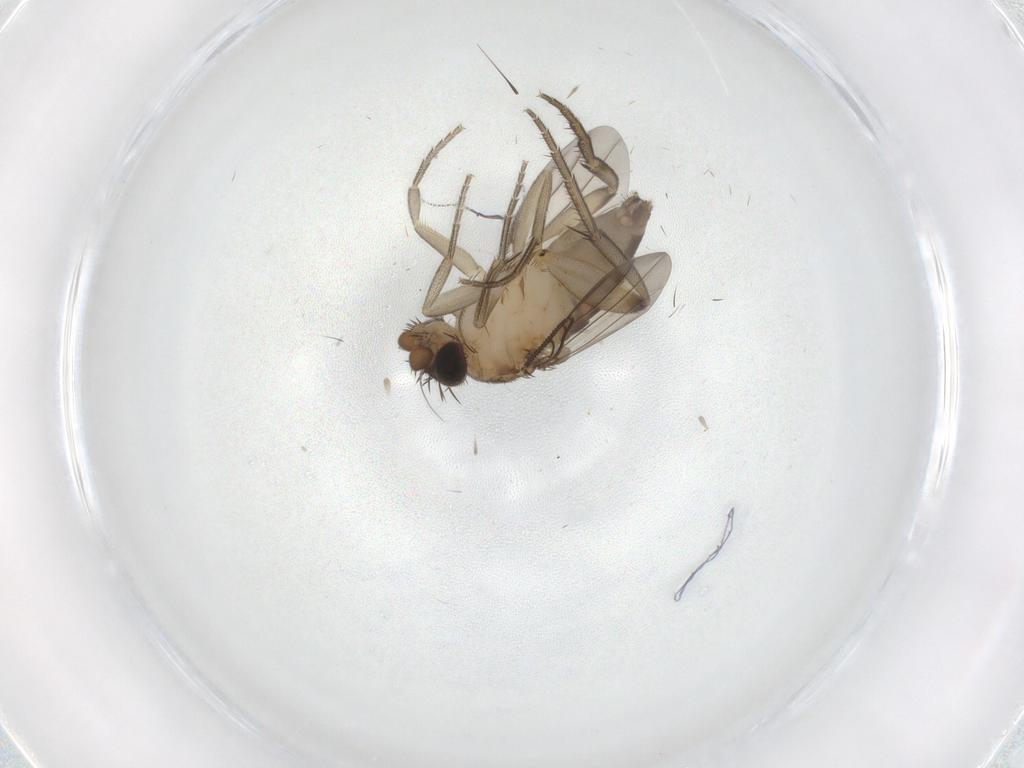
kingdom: Animalia
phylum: Arthropoda
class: Insecta
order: Diptera
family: Phoridae
